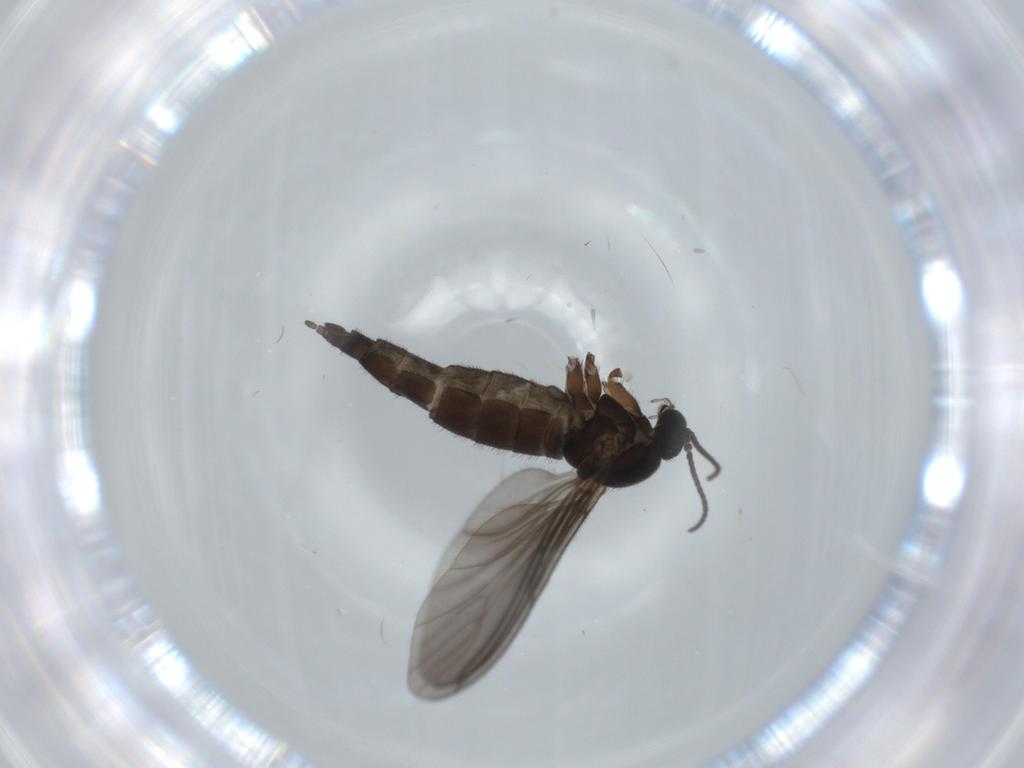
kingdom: Animalia
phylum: Arthropoda
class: Insecta
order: Diptera
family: Sciaridae
